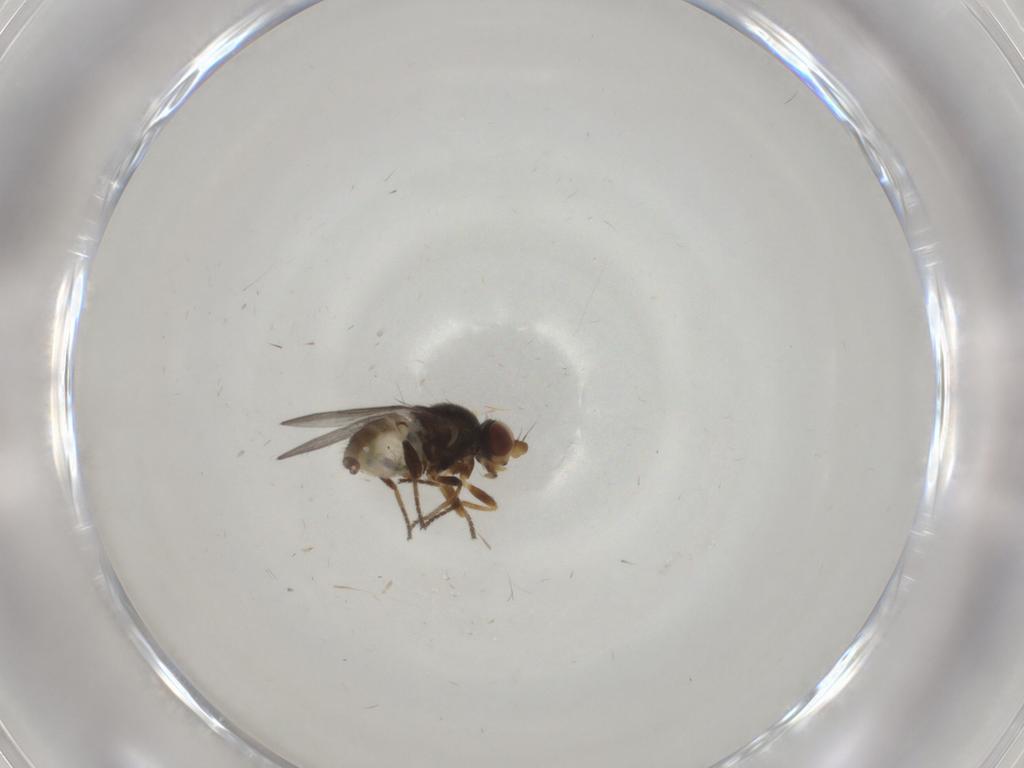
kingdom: Animalia
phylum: Arthropoda
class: Insecta
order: Diptera
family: Chloropidae
